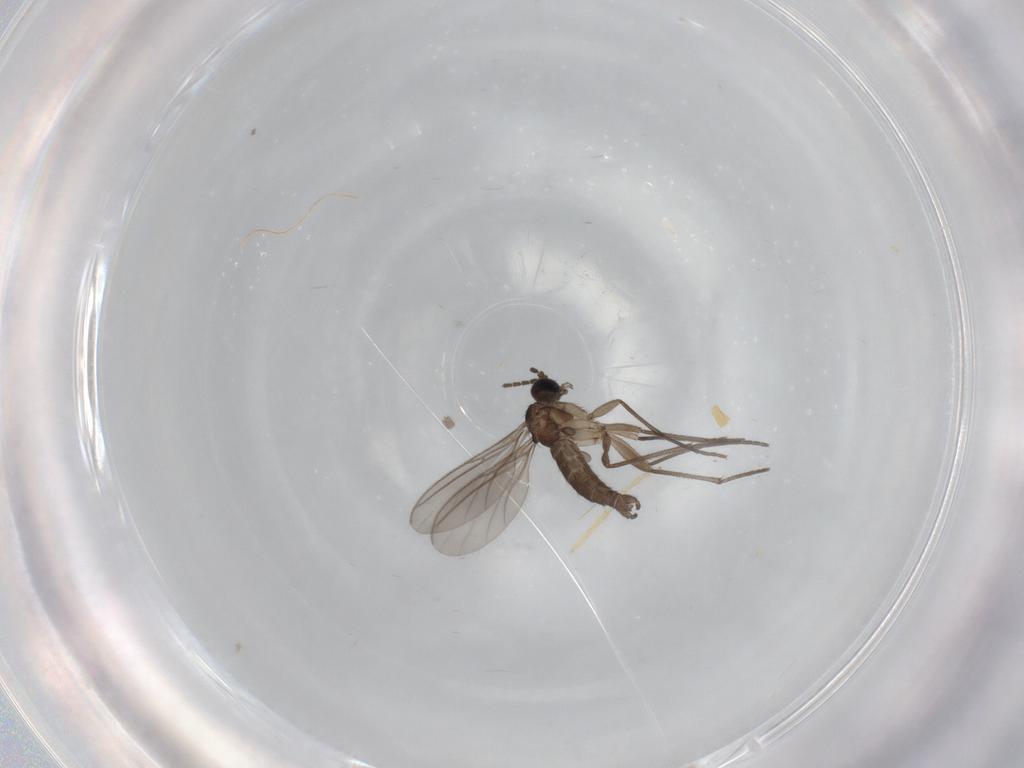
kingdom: Animalia
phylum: Arthropoda
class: Insecta
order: Diptera
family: Sciaridae
